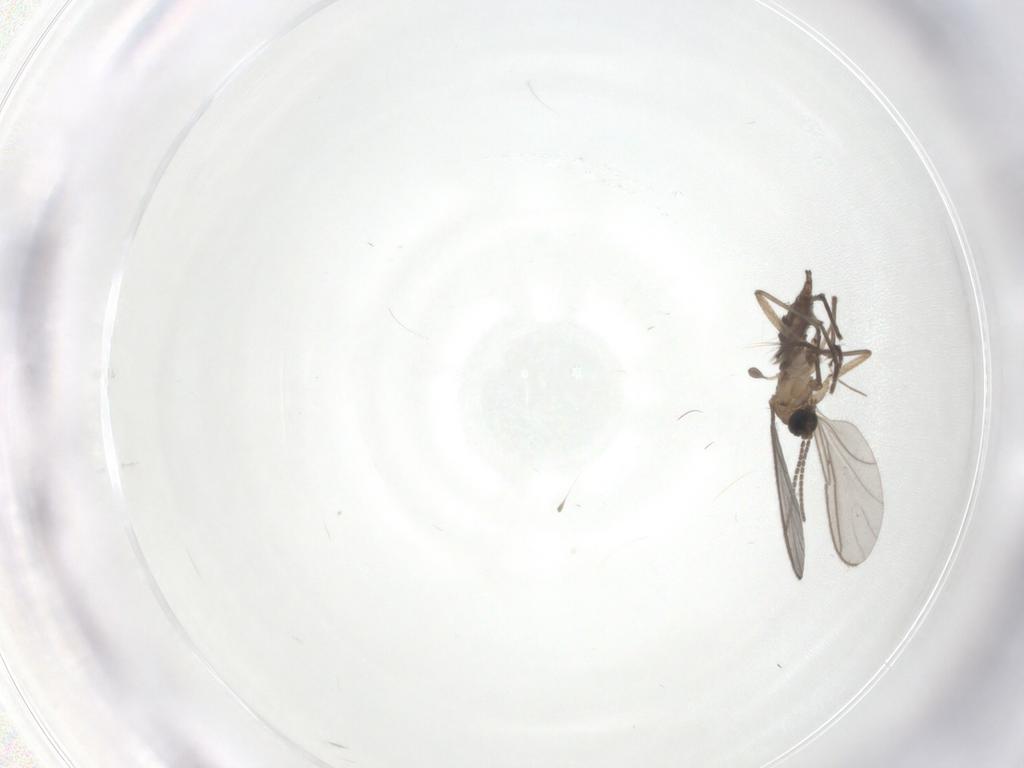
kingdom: Animalia
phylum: Arthropoda
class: Insecta
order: Diptera
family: Chironomidae
